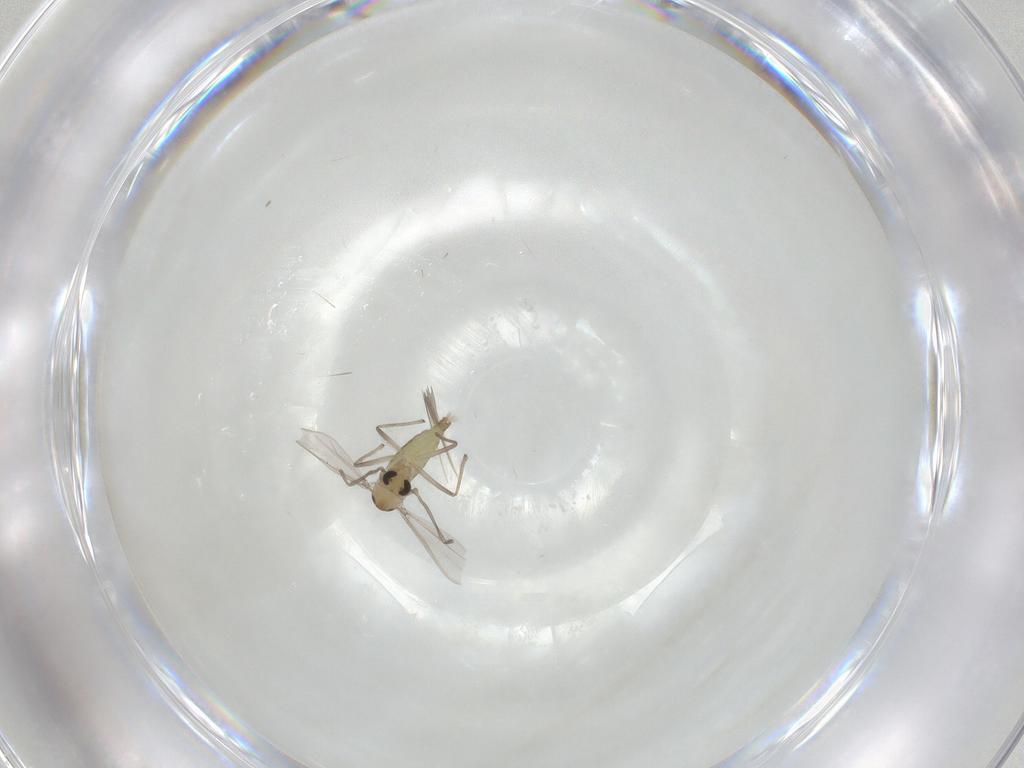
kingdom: Animalia
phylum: Arthropoda
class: Insecta
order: Diptera
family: Chironomidae
